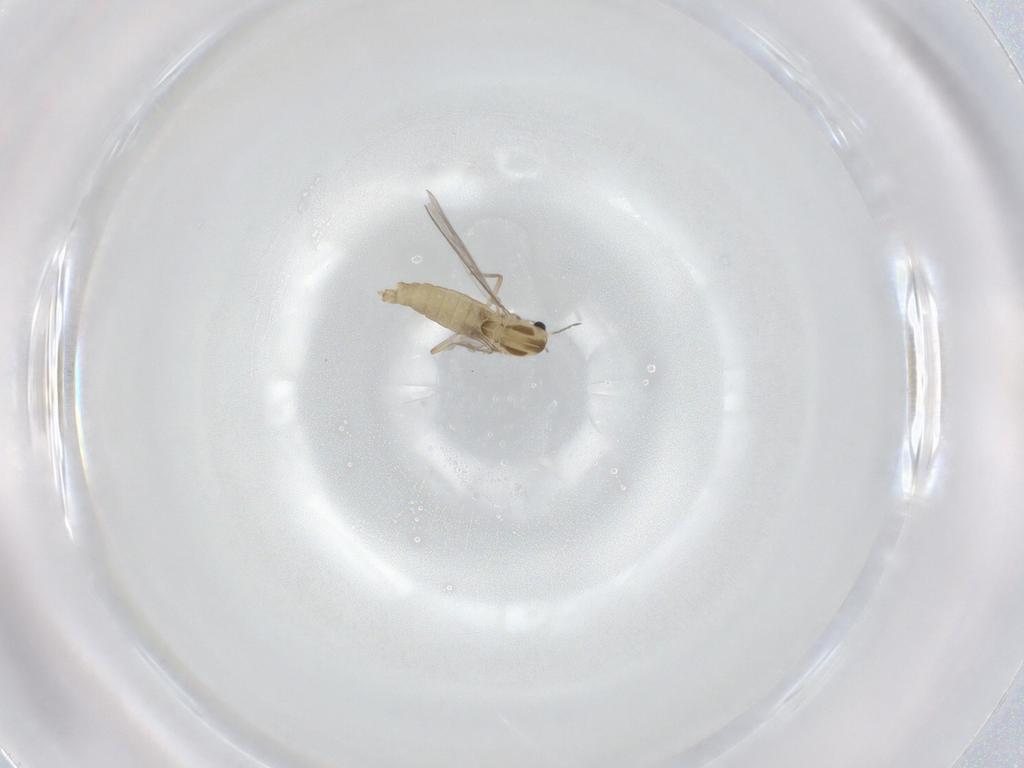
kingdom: Animalia
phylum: Arthropoda
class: Insecta
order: Diptera
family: Chironomidae
